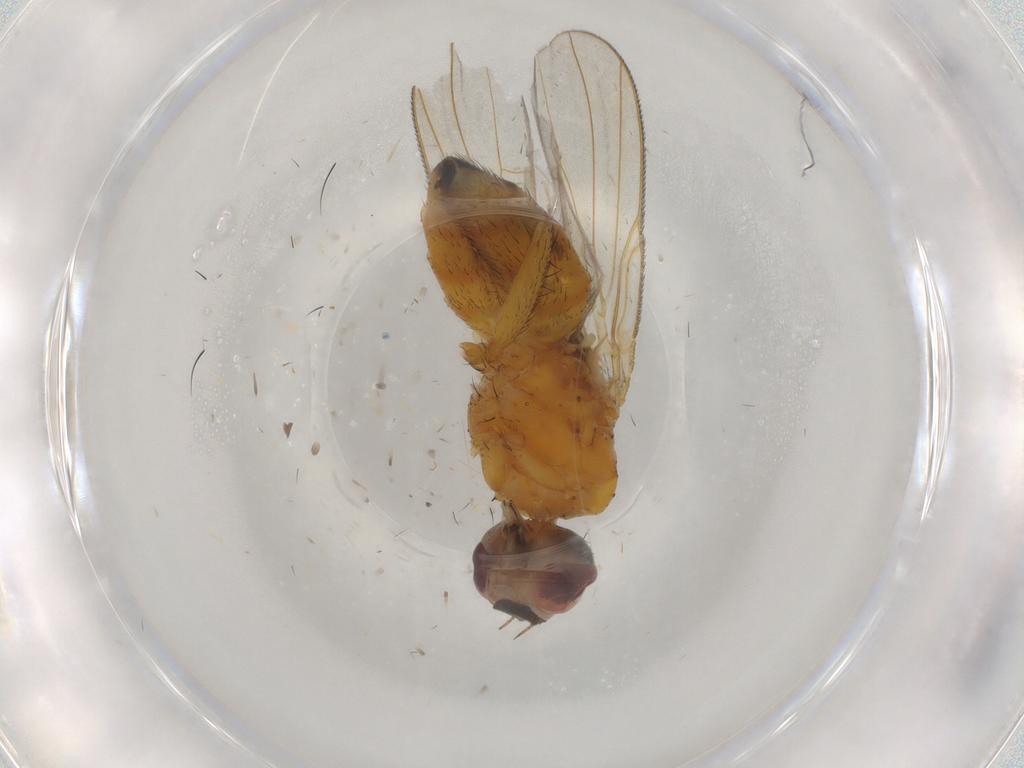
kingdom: Animalia
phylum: Arthropoda
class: Insecta
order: Diptera
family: Muscidae
